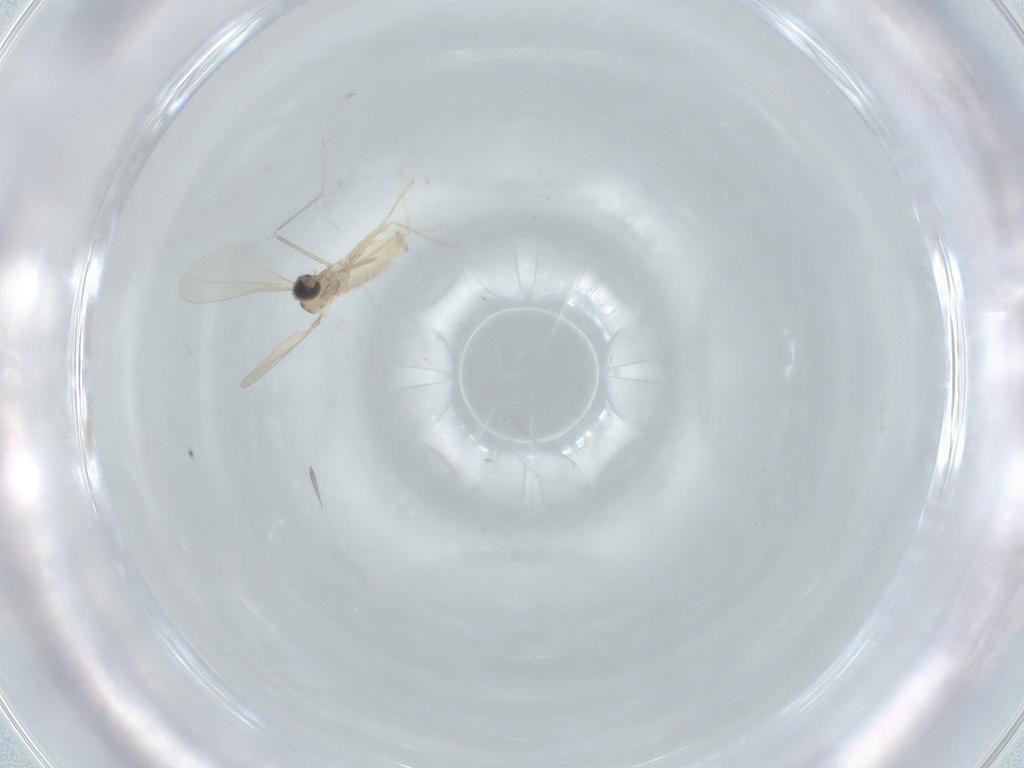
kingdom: Animalia
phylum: Arthropoda
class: Insecta
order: Diptera
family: Cecidomyiidae
